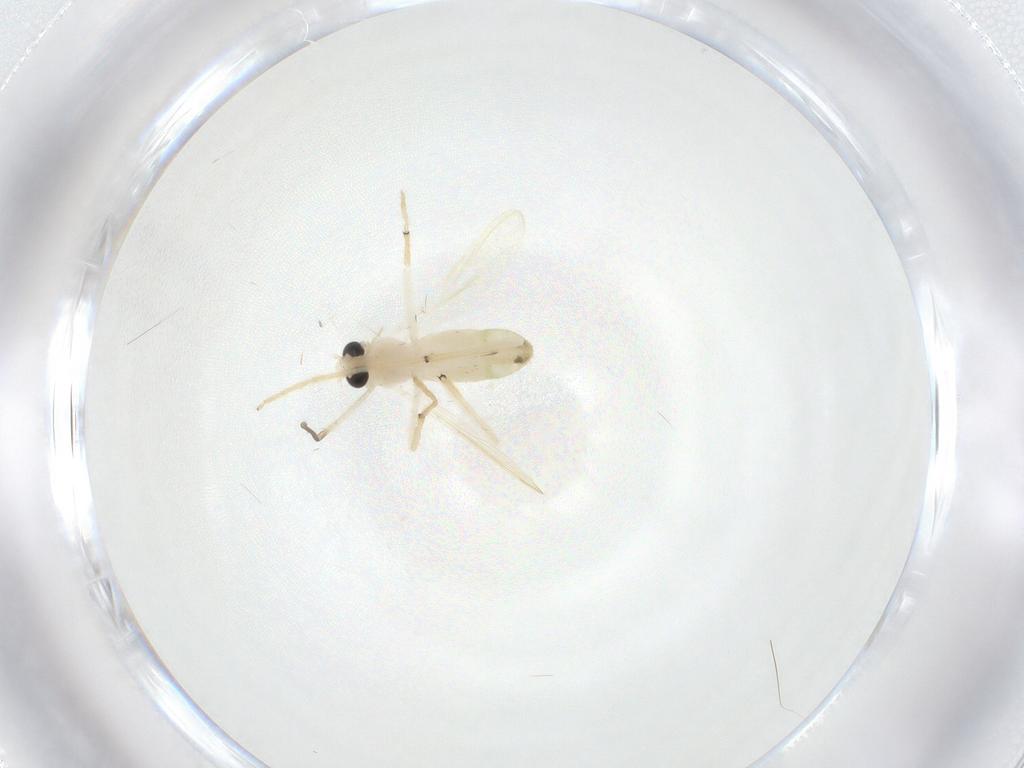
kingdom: Animalia
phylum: Arthropoda
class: Insecta
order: Diptera
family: Chironomidae
